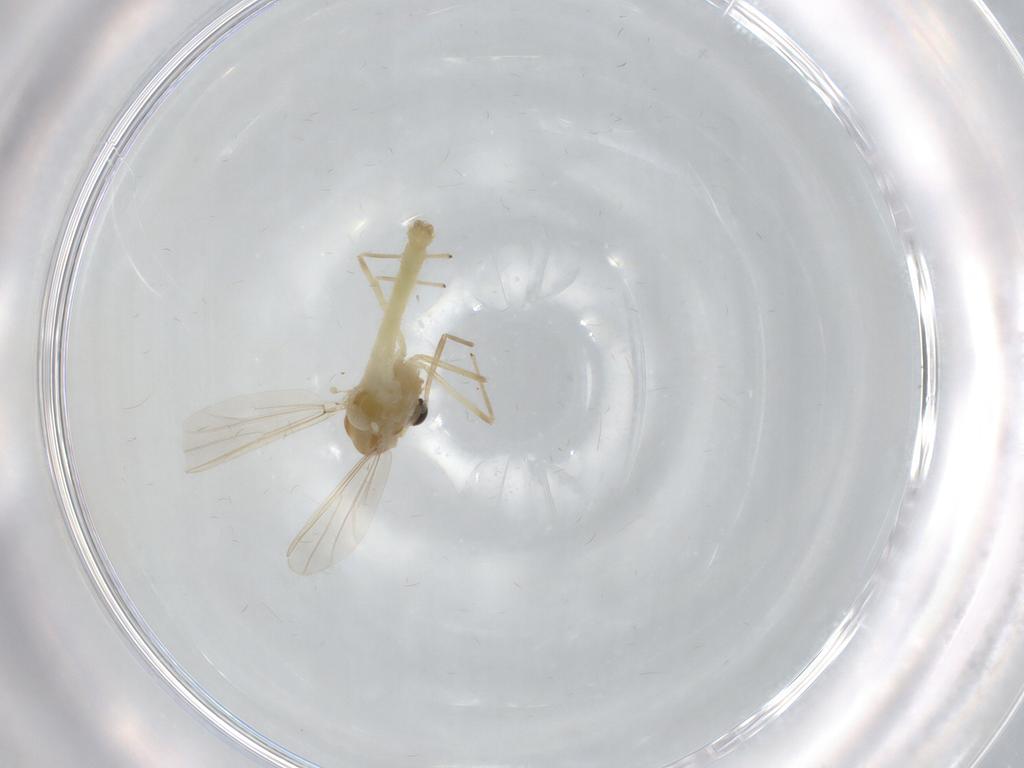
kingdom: Animalia
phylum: Arthropoda
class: Insecta
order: Diptera
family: Chironomidae
